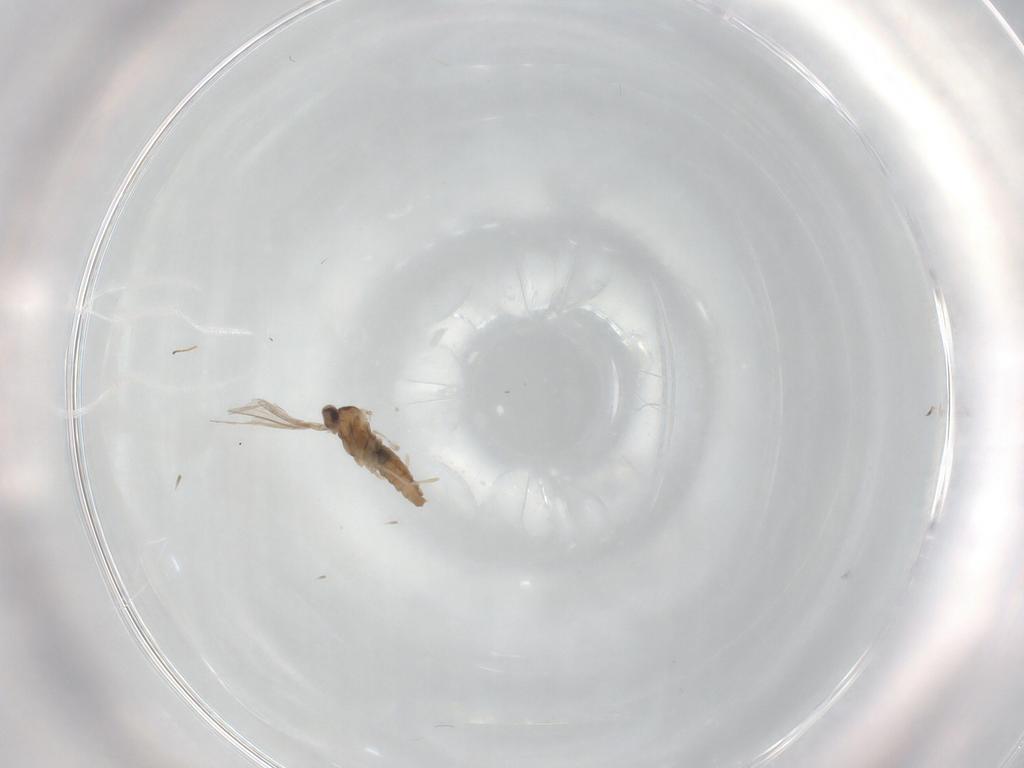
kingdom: Animalia
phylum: Arthropoda
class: Insecta
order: Diptera
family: Cecidomyiidae
